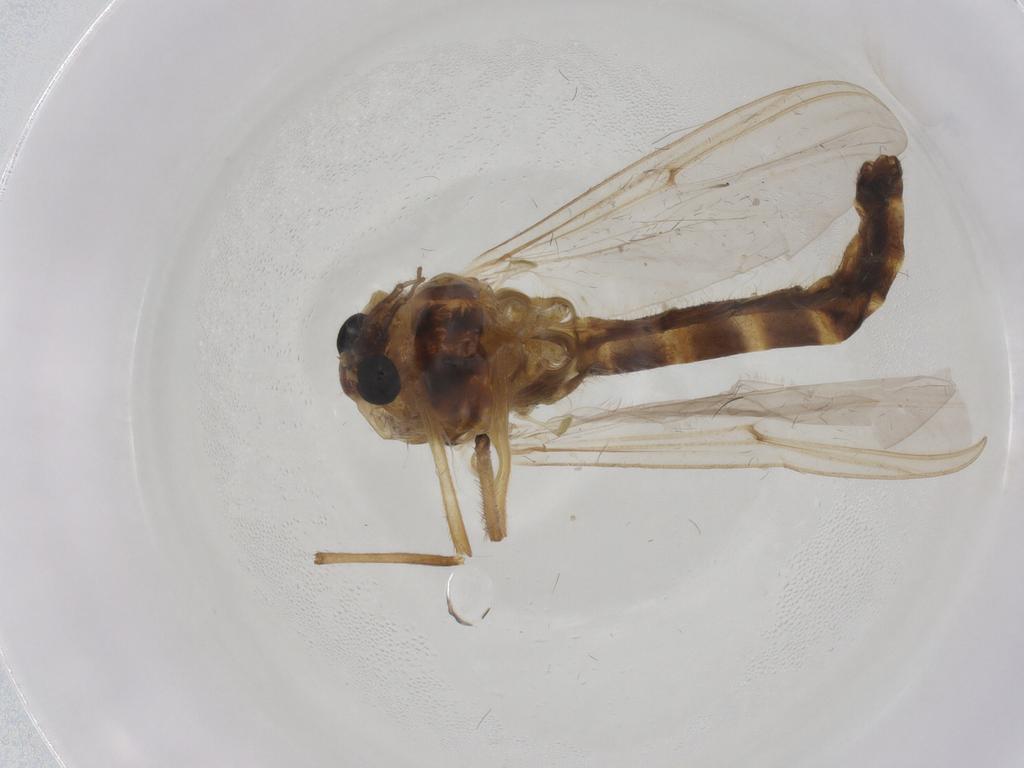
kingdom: Animalia
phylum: Arthropoda
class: Insecta
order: Diptera
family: Chironomidae
